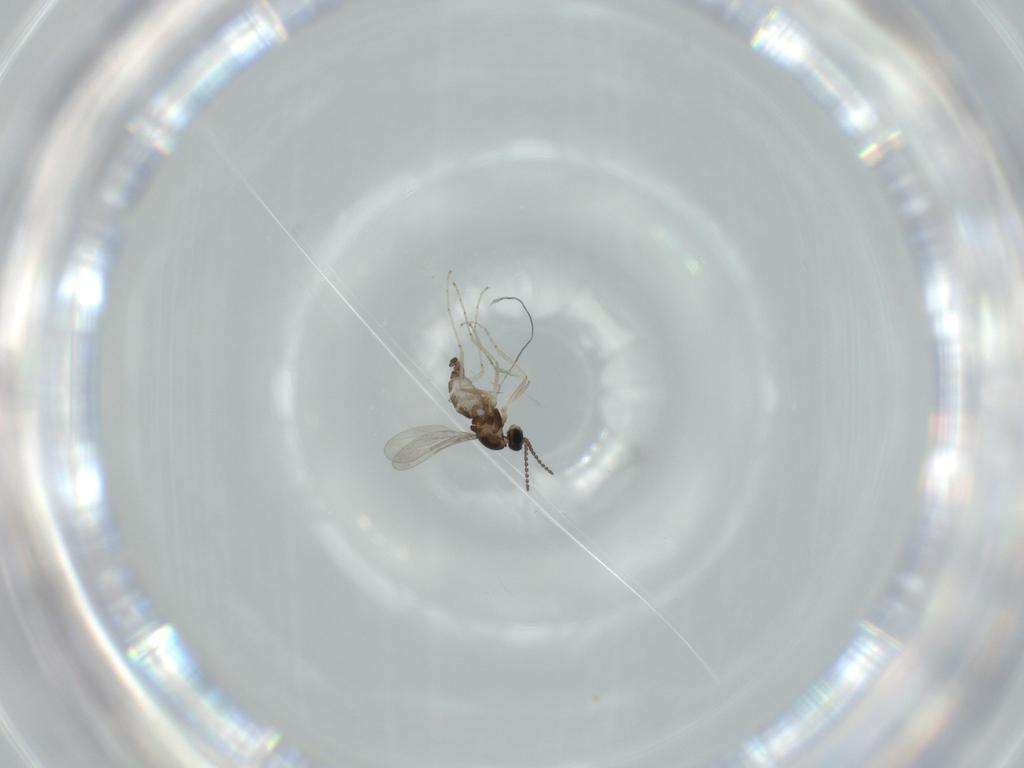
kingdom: Animalia
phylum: Arthropoda
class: Insecta
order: Diptera
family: Cecidomyiidae
